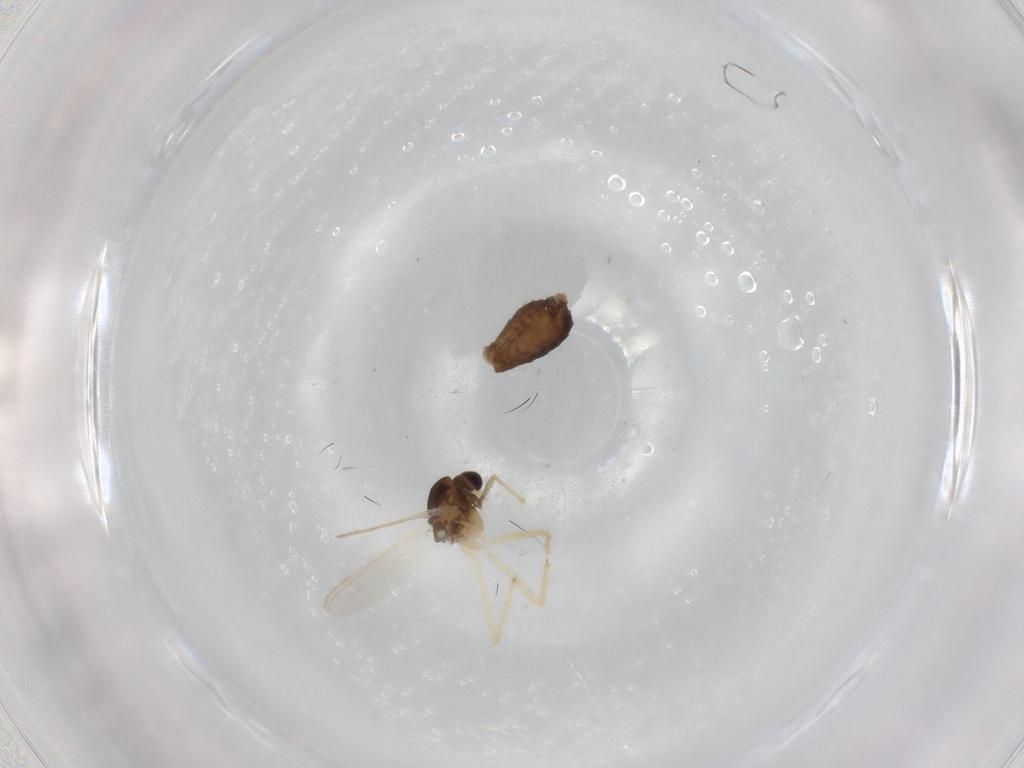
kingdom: Animalia
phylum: Arthropoda
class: Insecta
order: Diptera
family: Chironomidae
